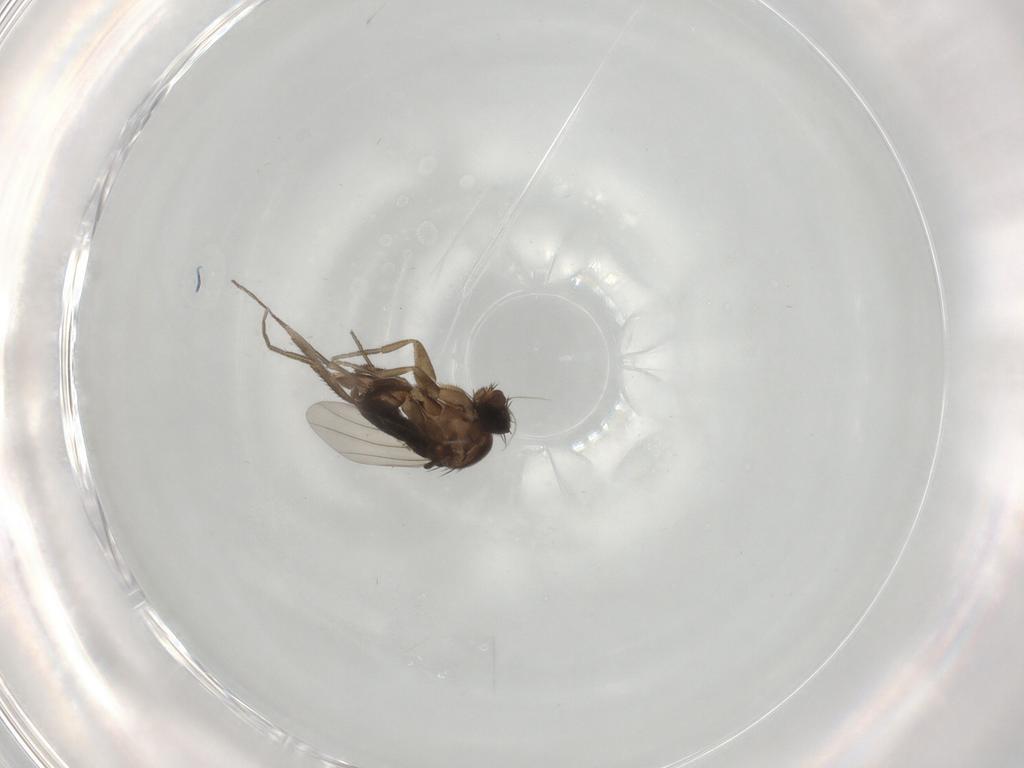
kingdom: Animalia
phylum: Arthropoda
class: Insecta
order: Diptera
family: Phoridae
